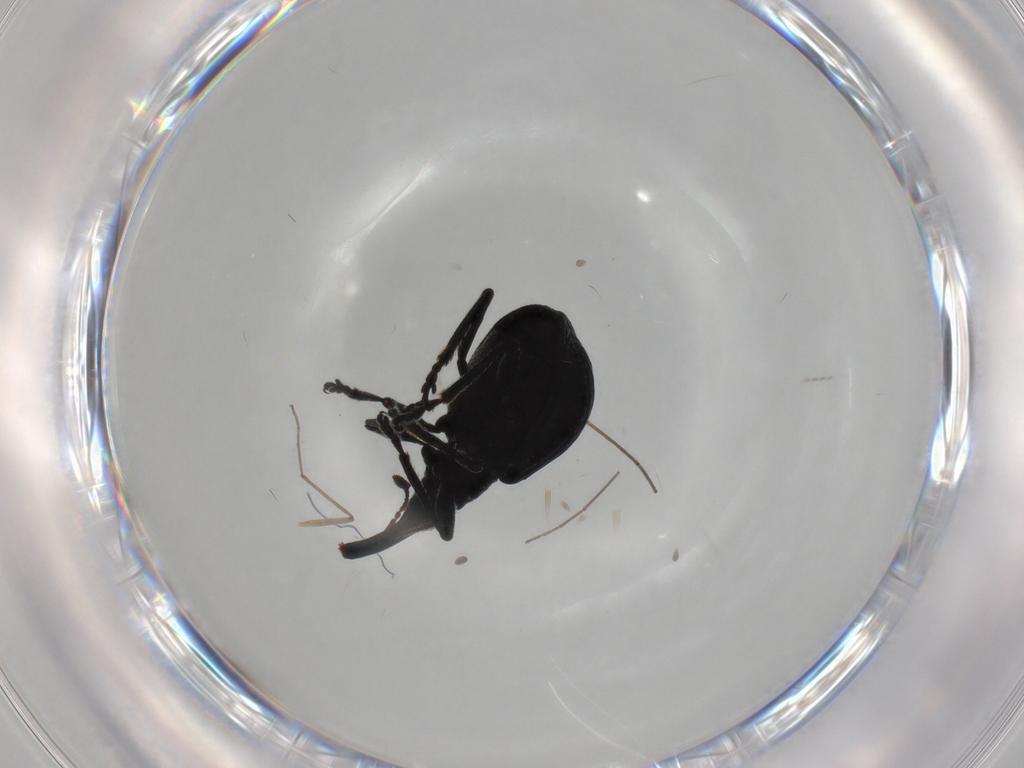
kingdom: Animalia
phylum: Arthropoda
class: Insecta
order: Coleoptera
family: Brentidae
